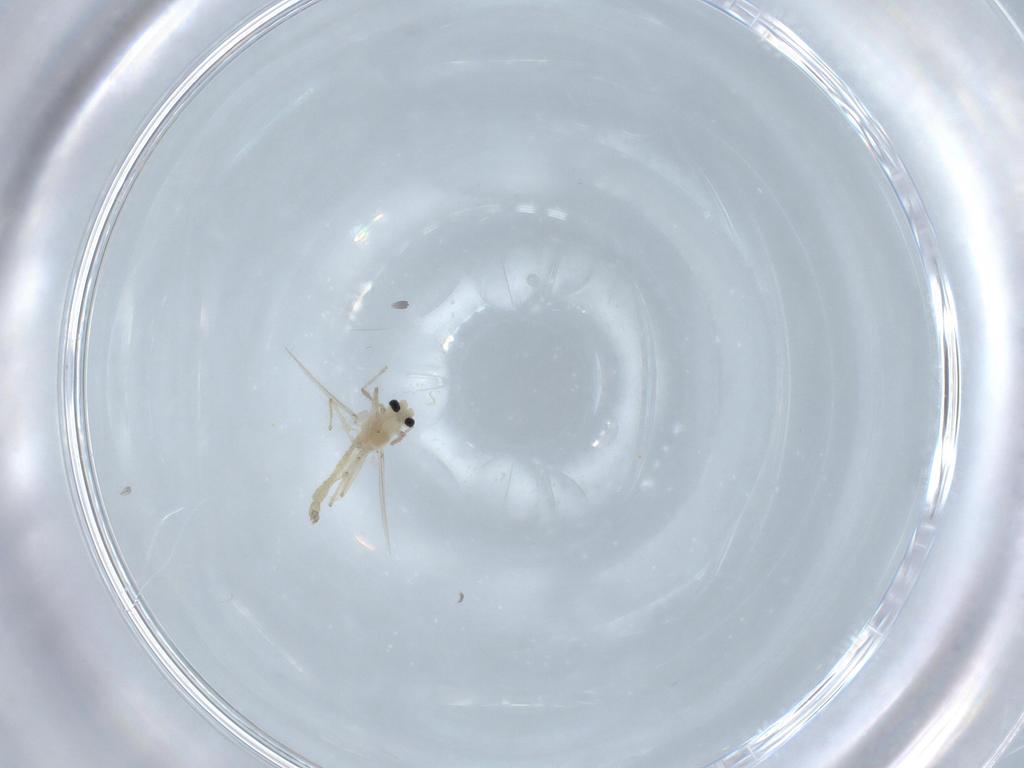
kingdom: Animalia
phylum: Arthropoda
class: Insecta
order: Diptera
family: Chironomidae
